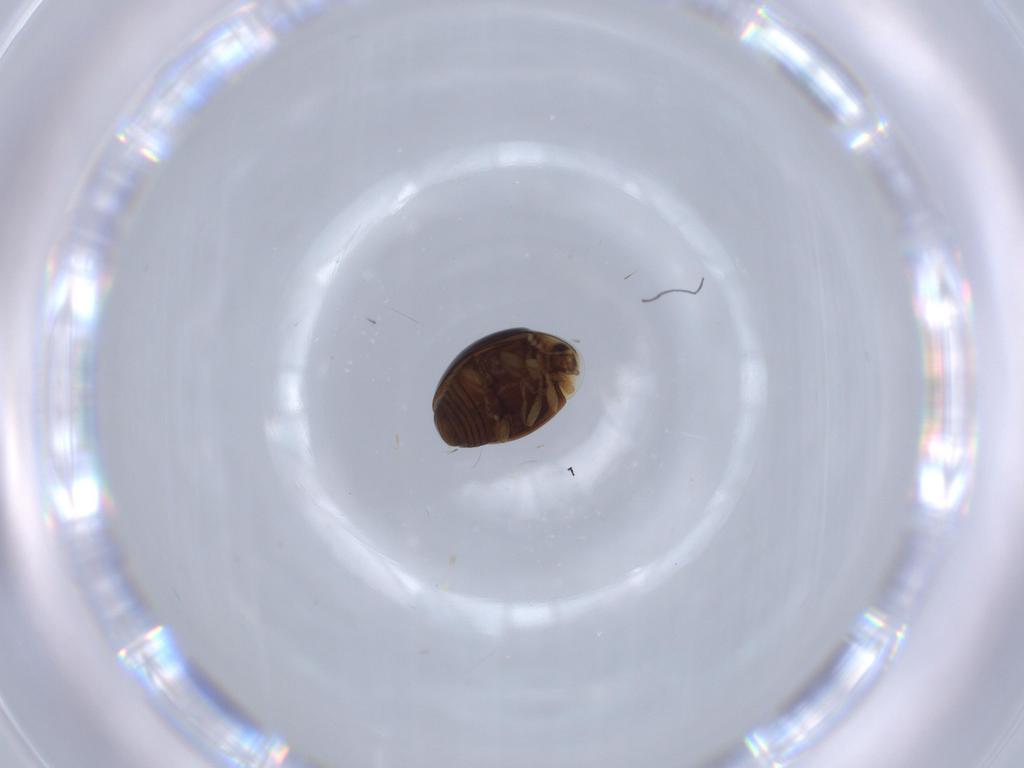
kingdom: Animalia
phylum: Arthropoda
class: Insecta
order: Coleoptera
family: Corylophidae
